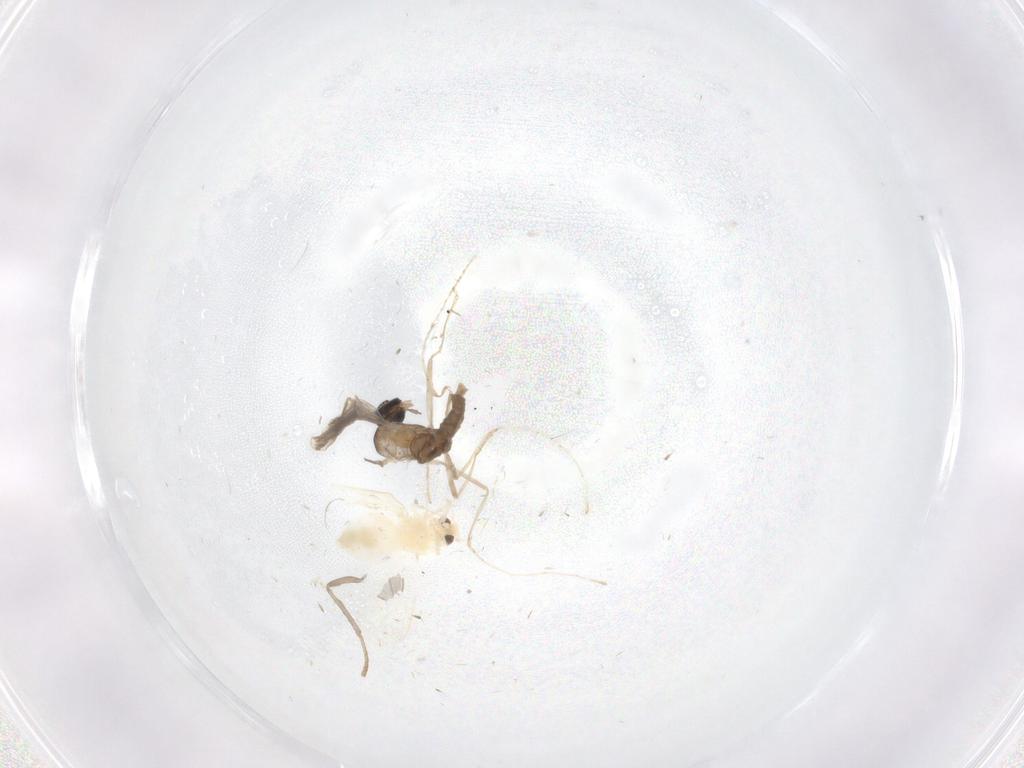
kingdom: Animalia
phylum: Arthropoda
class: Insecta
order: Diptera
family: Cecidomyiidae
